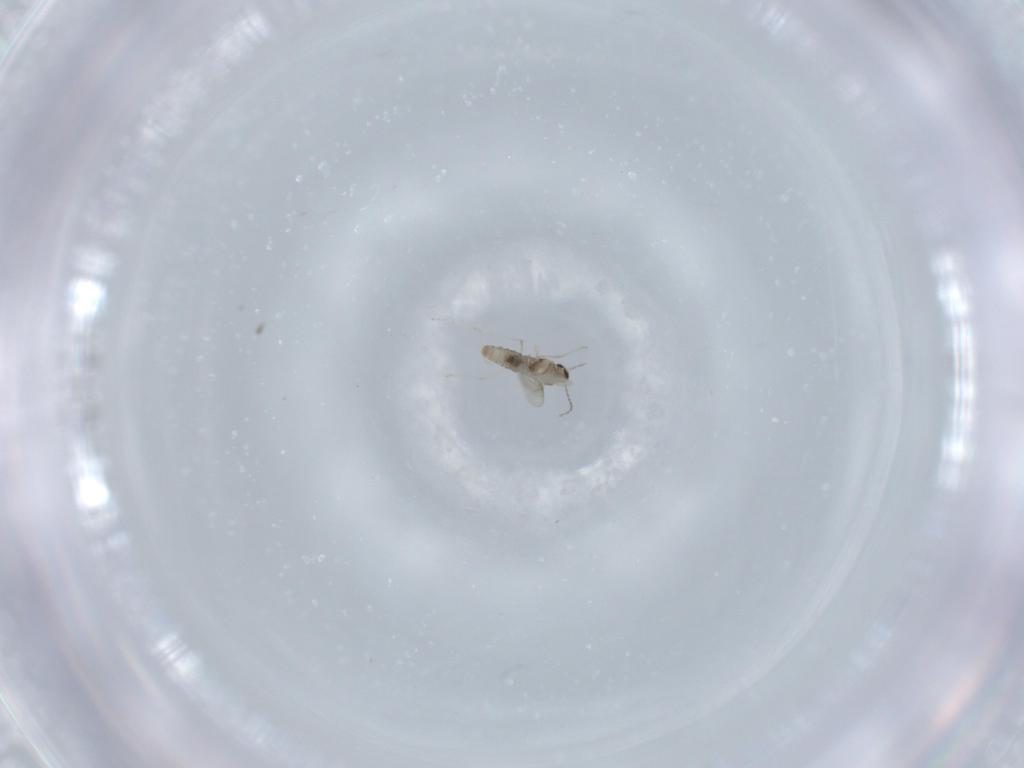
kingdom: Animalia
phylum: Arthropoda
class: Insecta
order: Diptera
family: Cecidomyiidae
